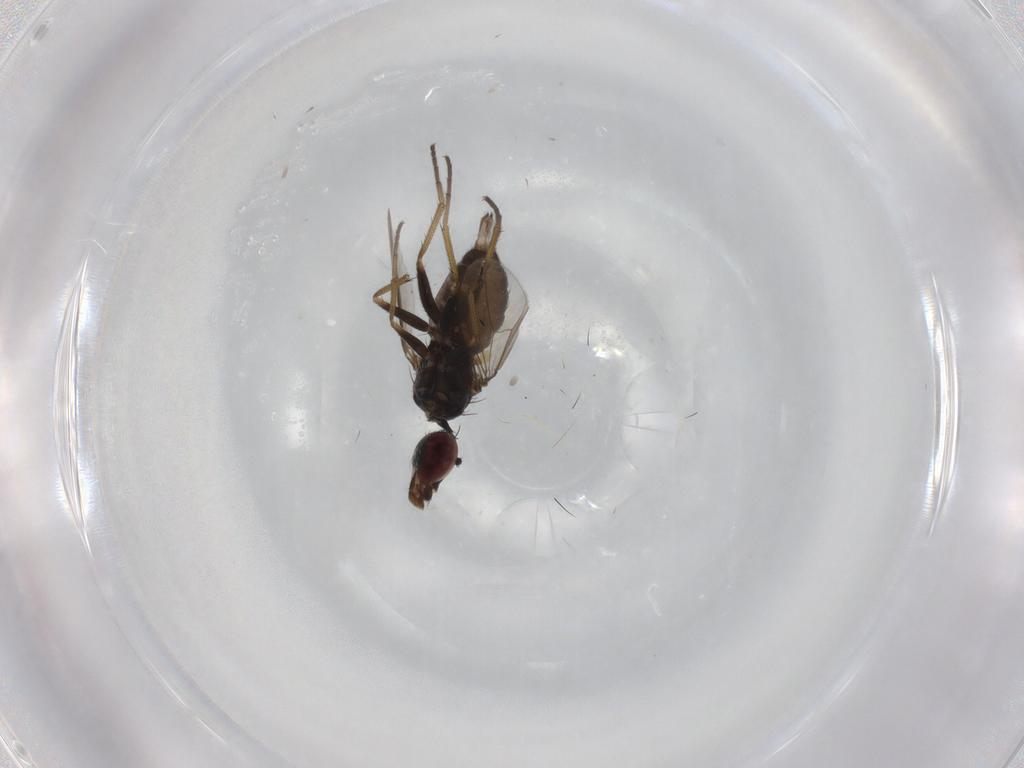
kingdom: Animalia
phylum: Arthropoda
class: Insecta
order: Diptera
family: Dolichopodidae
